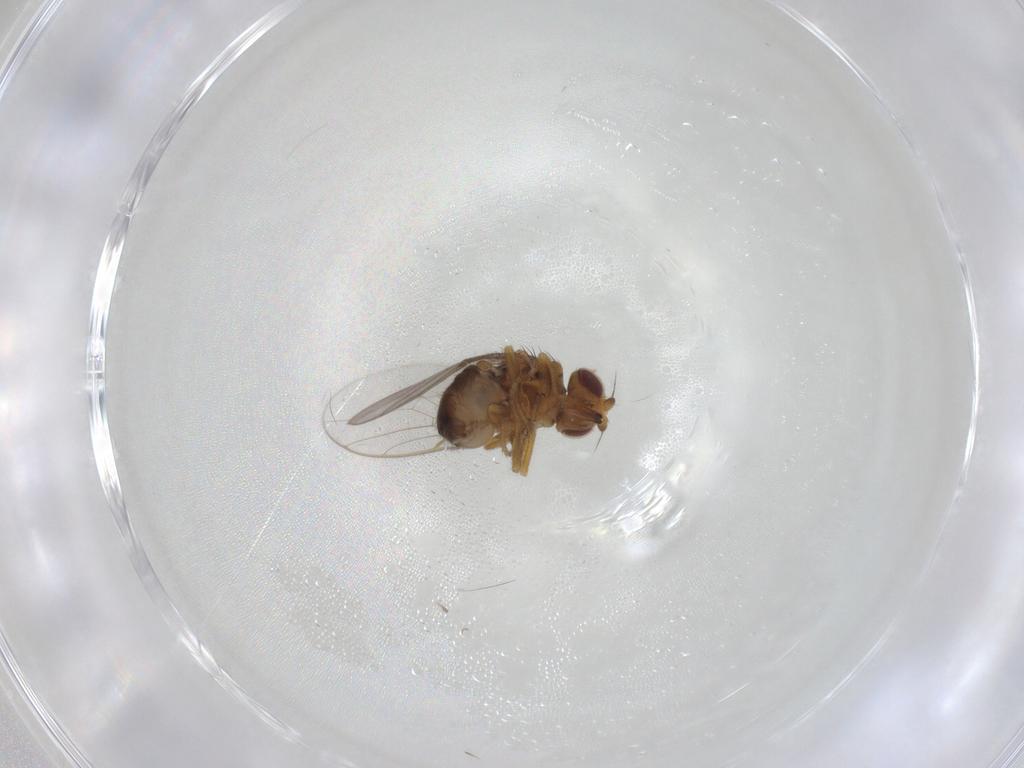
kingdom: Animalia
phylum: Arthropoda
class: Insecta
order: Diptera
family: Chloropidae
